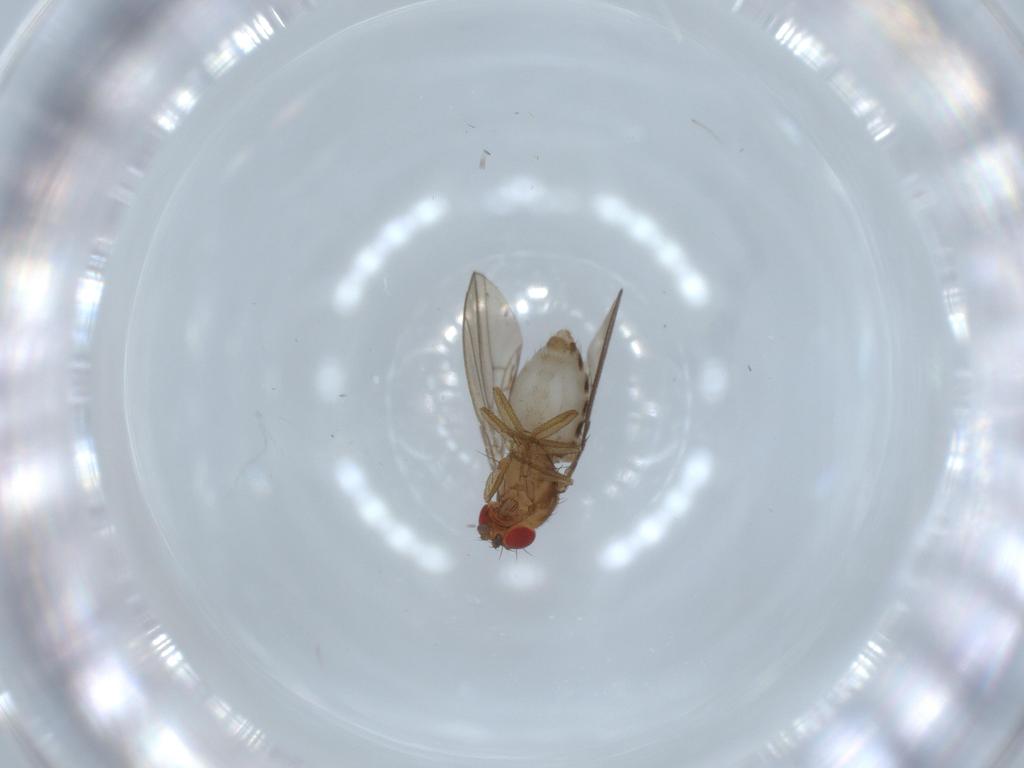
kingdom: Animalia
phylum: Arthropoda
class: Insecta
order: Diptera
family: Drosophilidae
